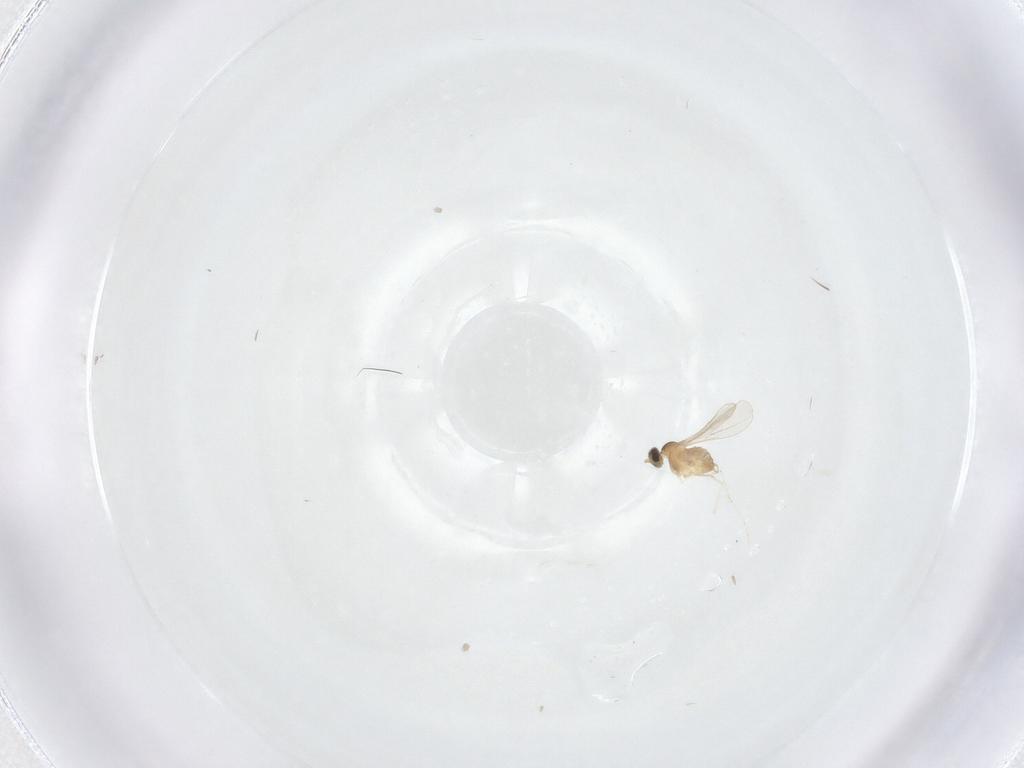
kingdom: Animalia
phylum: Arthropoda
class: Insecta
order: Diptera
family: Cecidomyiidae
